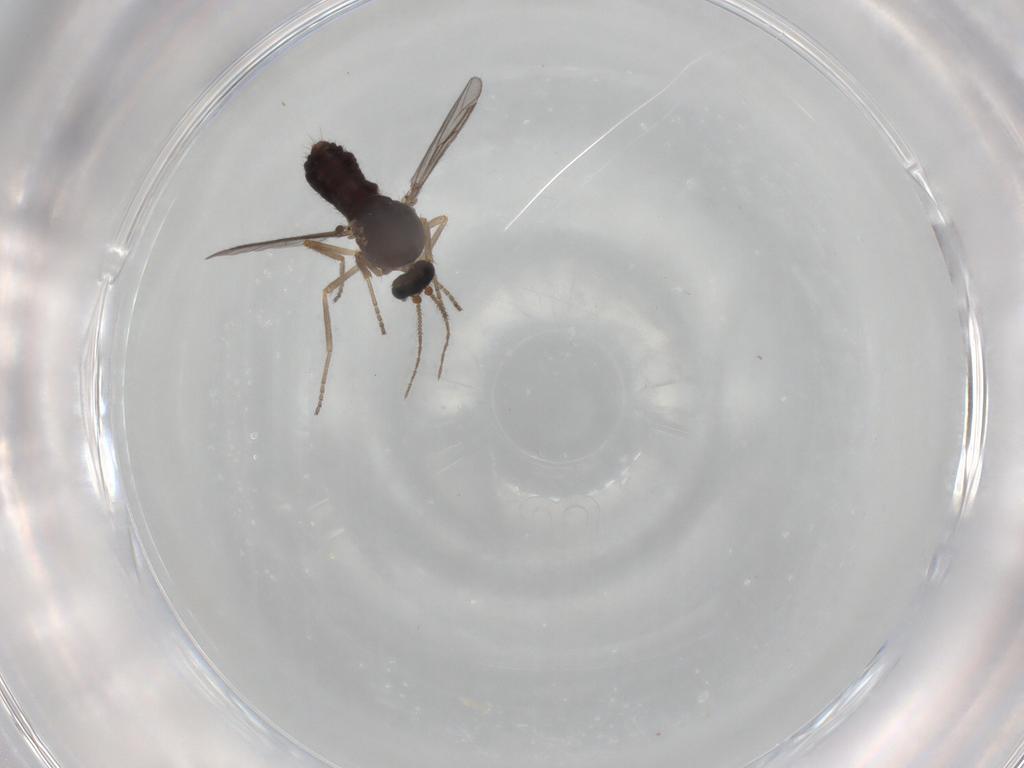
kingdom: Animalia
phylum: Arthropoda
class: Insecta
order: Diptera
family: Ceratopogonidae
